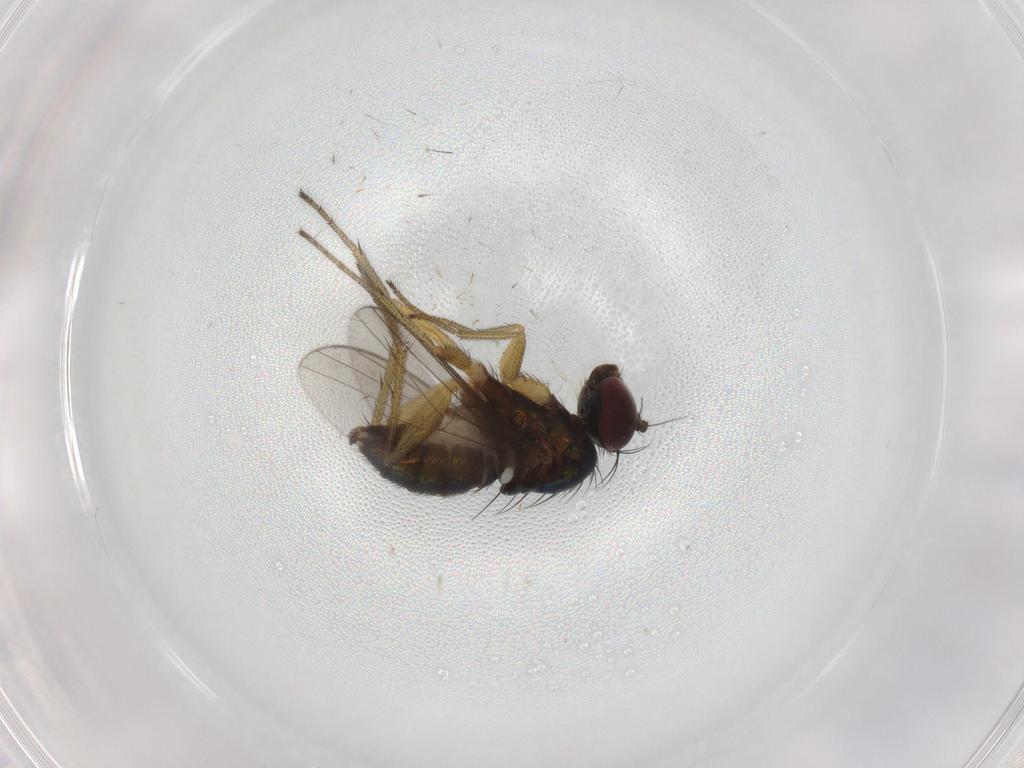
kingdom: Animalia
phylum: Arthropoda
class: Insecta
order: Diptera
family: Dolichopodidae
